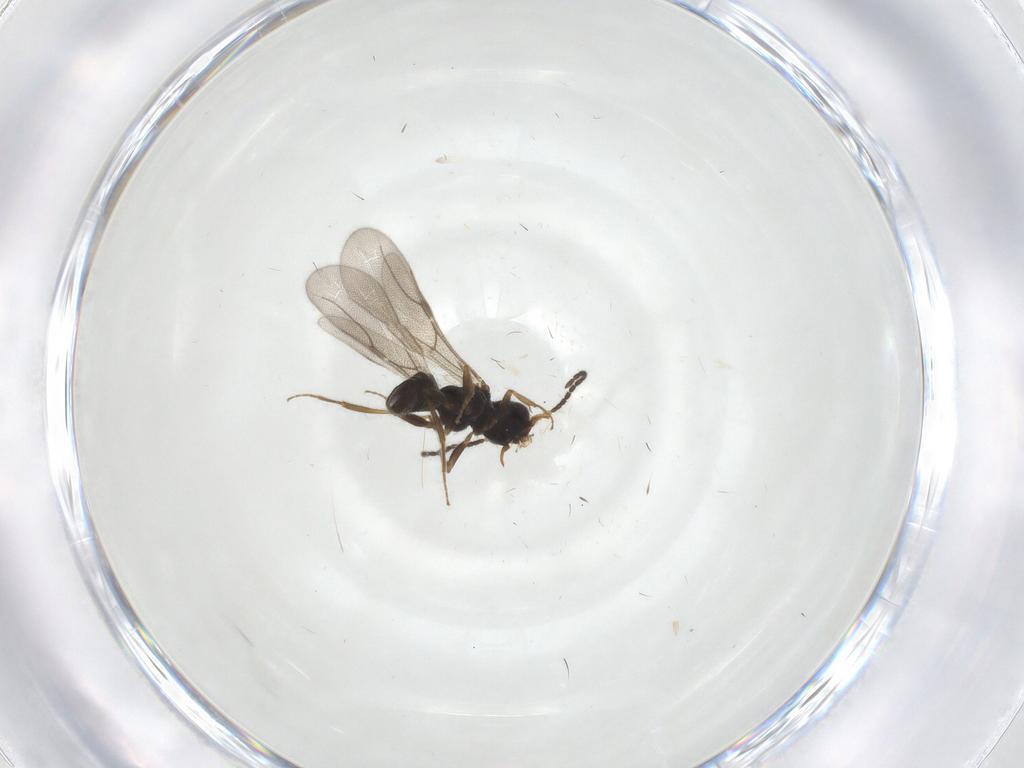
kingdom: Animalia
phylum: Arthropoda
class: Insecta
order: Hymenoptera
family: Bethylidae
